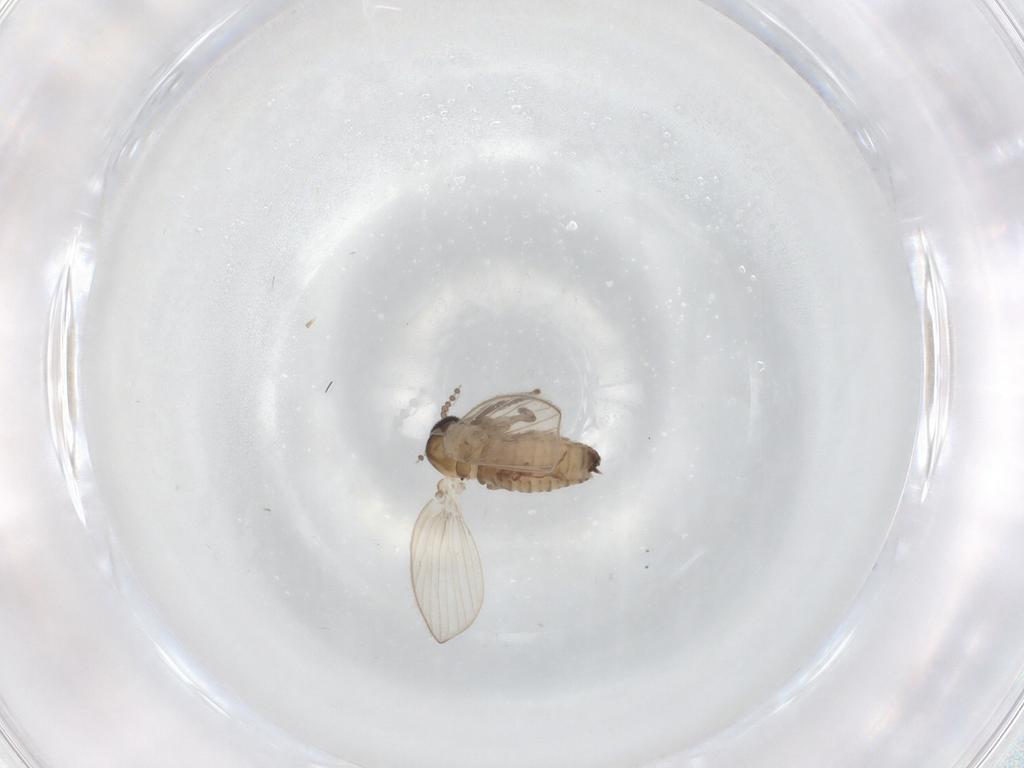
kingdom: Animalia
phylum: Arthropoda
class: Insecta
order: Diptera
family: Psychodidae
